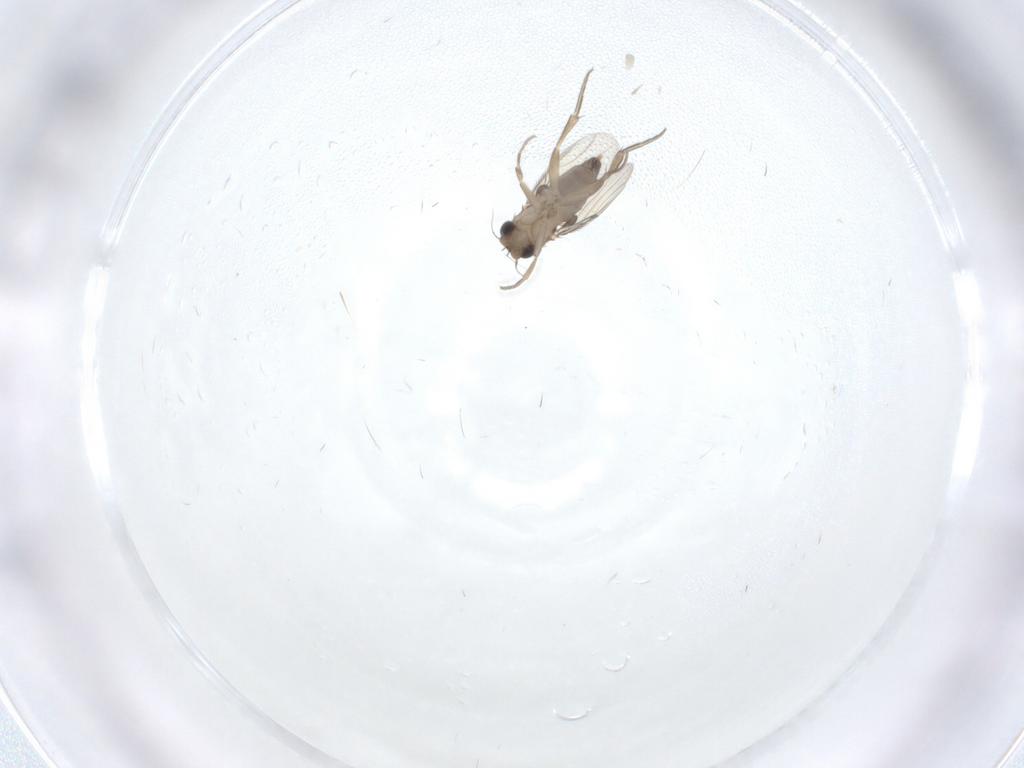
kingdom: Animalia
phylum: Arthropoda
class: Insecta
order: Diptera
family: Phoridae
